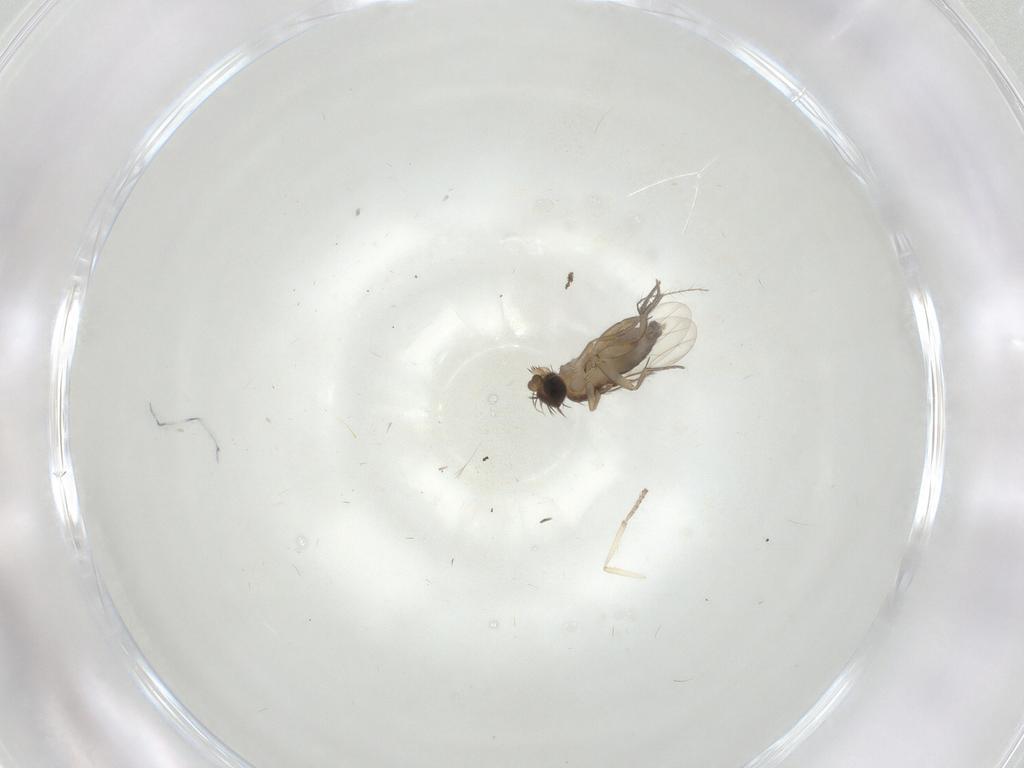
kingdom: Animalia
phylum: Arthropoda
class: Insecta
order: Diptera
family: Phoridae
